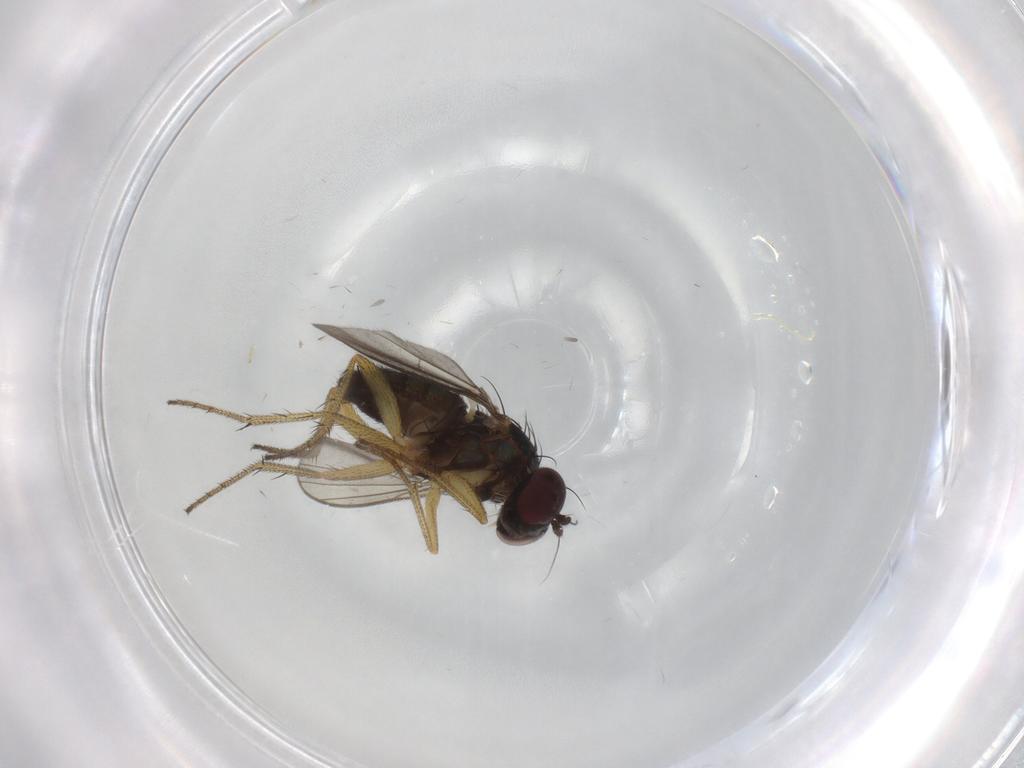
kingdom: Animalia
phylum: Arthropoda
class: Insecta
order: Diptera
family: Dolichopodidae
